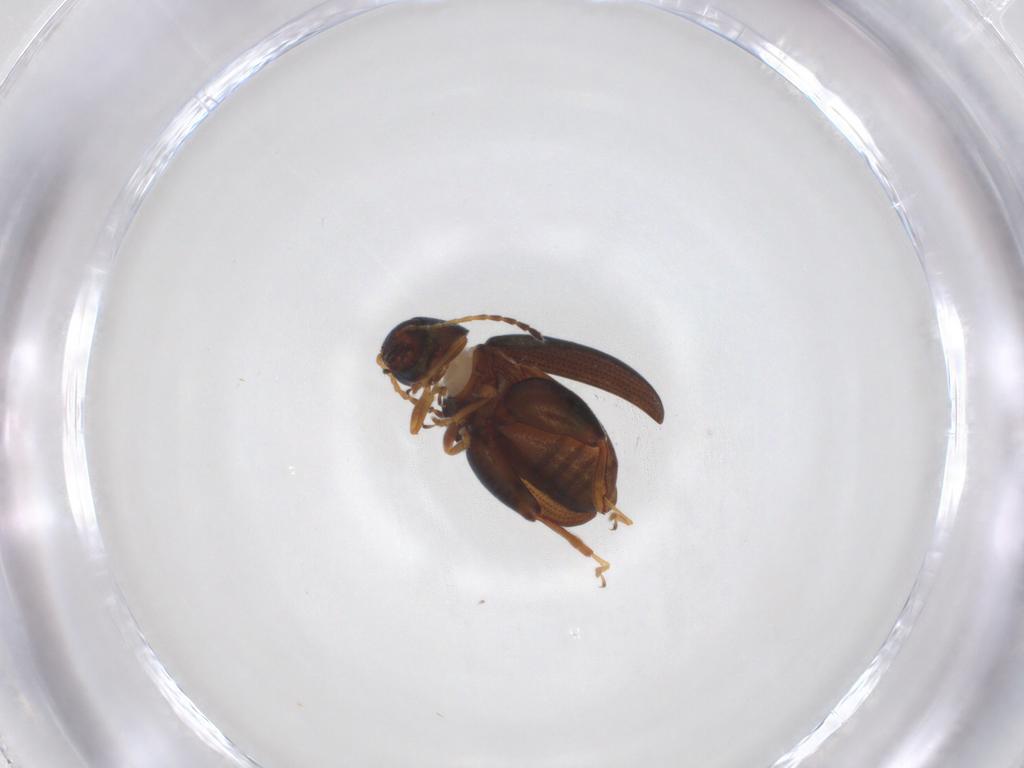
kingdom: Animalia
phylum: Arthropoda
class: Insecta
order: Coleoptera
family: Chrysomelidae
